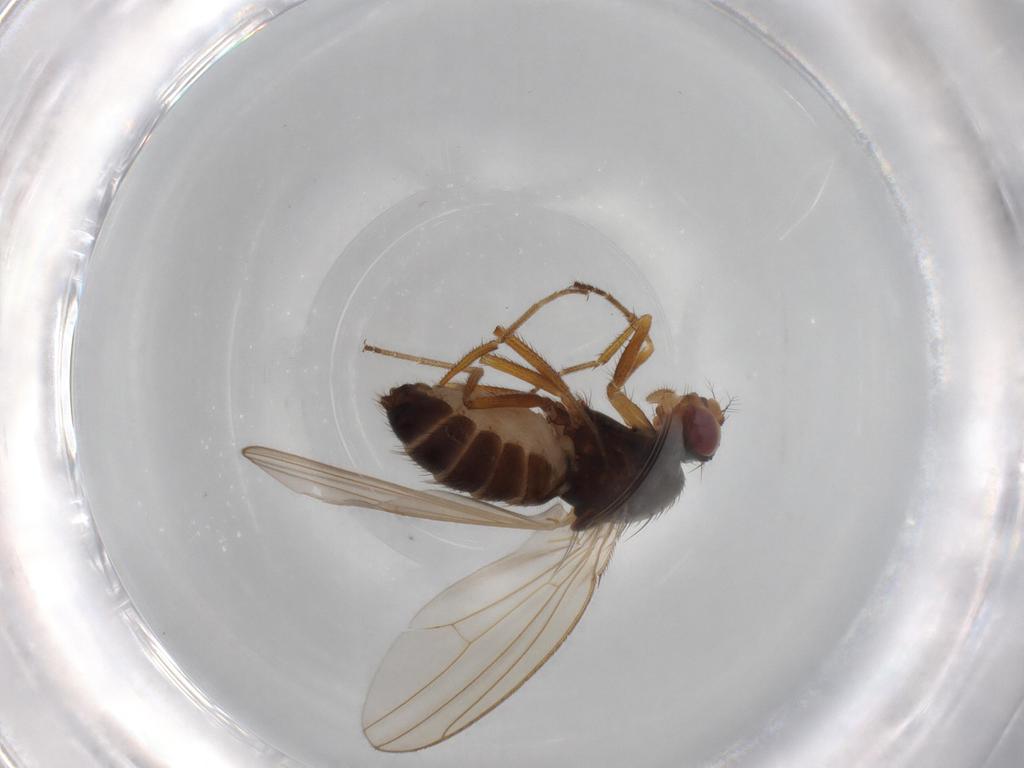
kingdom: Animalia
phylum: Arthropoda
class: Insecta
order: Diptera
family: Drosophilidae
